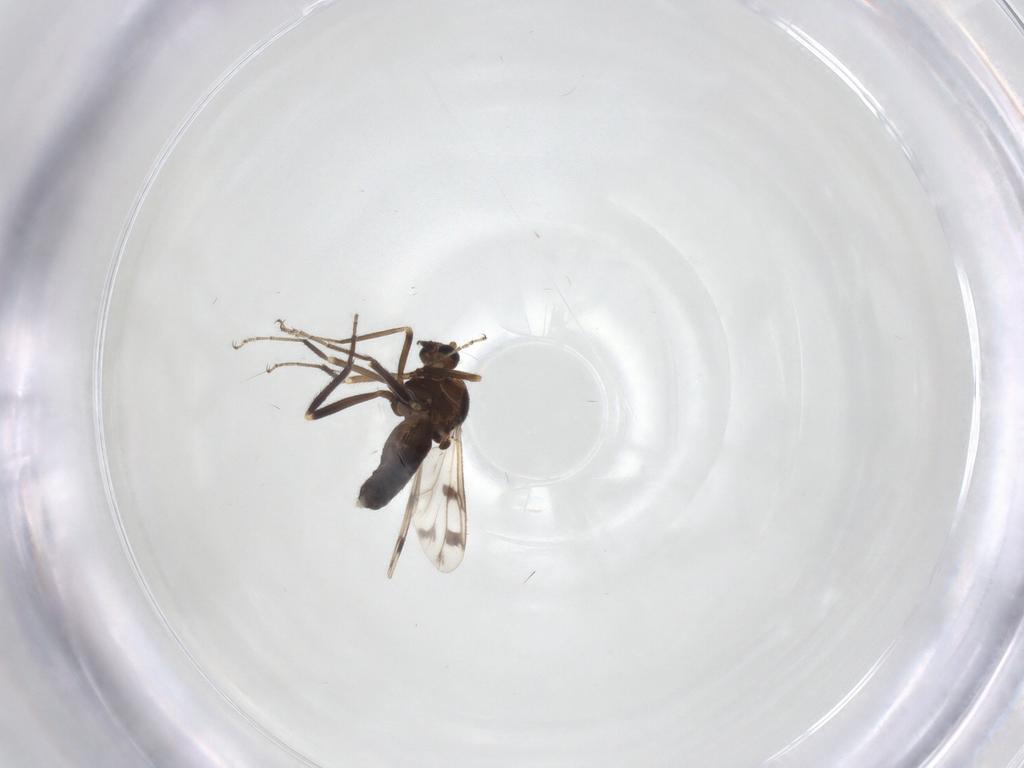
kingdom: Animalia
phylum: Arthropoda
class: Insecta
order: Diptera
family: Ceratopogonidae
